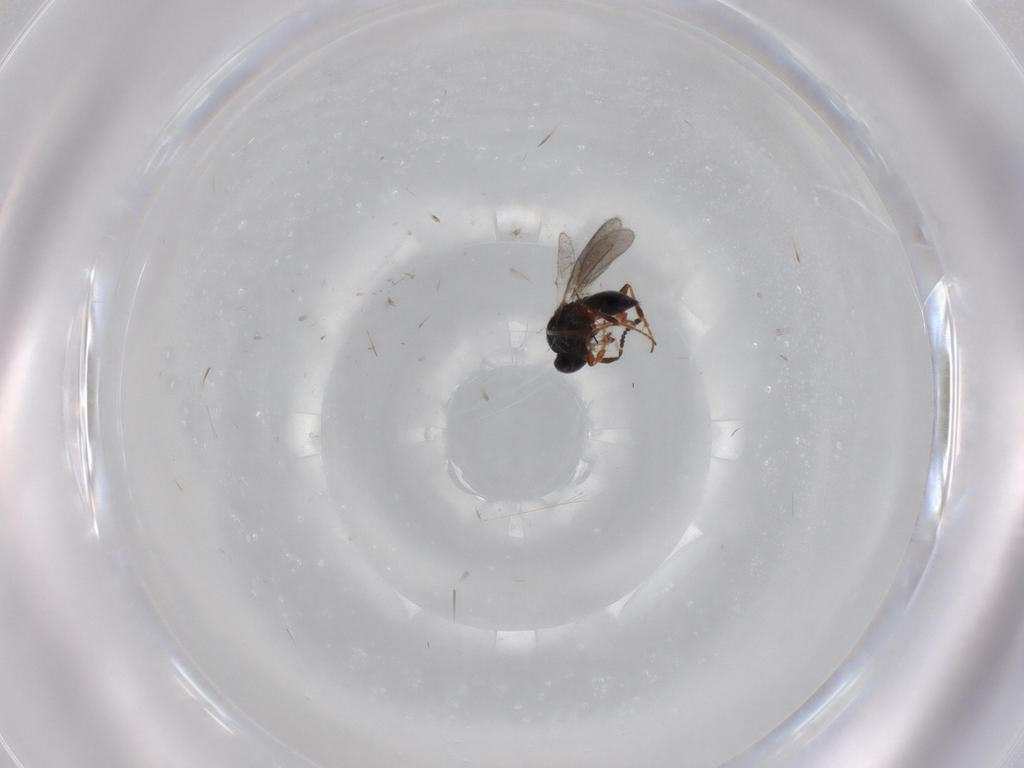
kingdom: Animalia
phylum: Arthropoda
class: Insecta
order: Hymenoptera
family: Platygastridae
